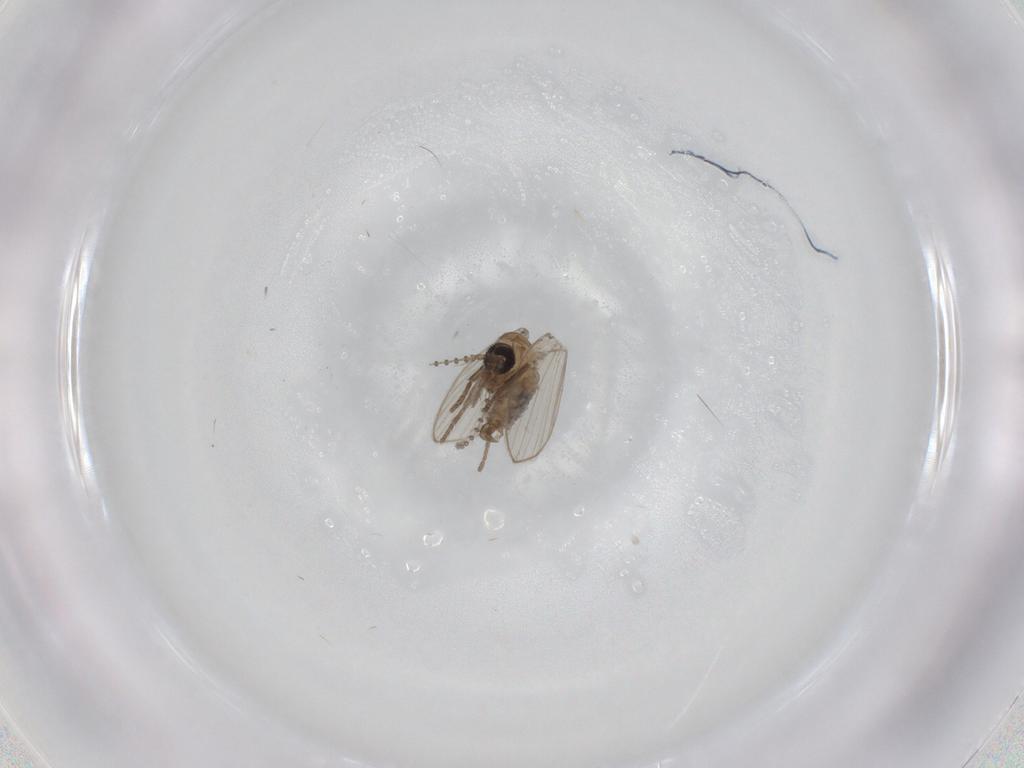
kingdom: Animalia
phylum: Arthropoda
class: Insecta
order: Diptera
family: Psychodidae
